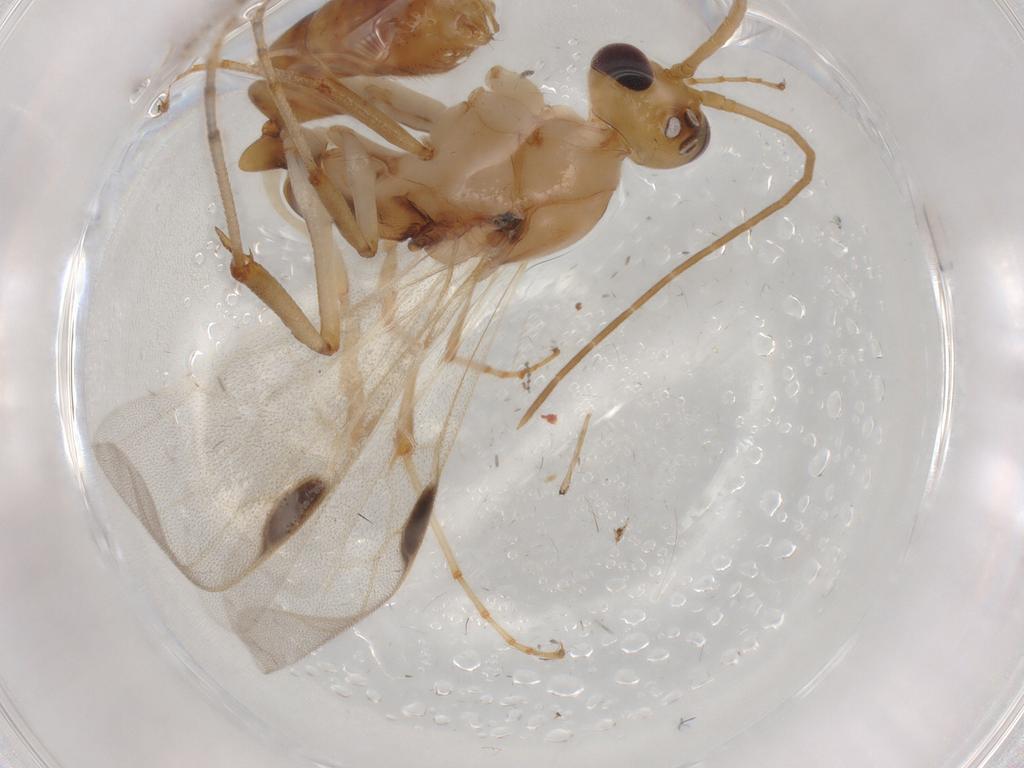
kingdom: Animalia
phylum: Arthropoda
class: Insecta
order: Hymenoptera
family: Formicidae
